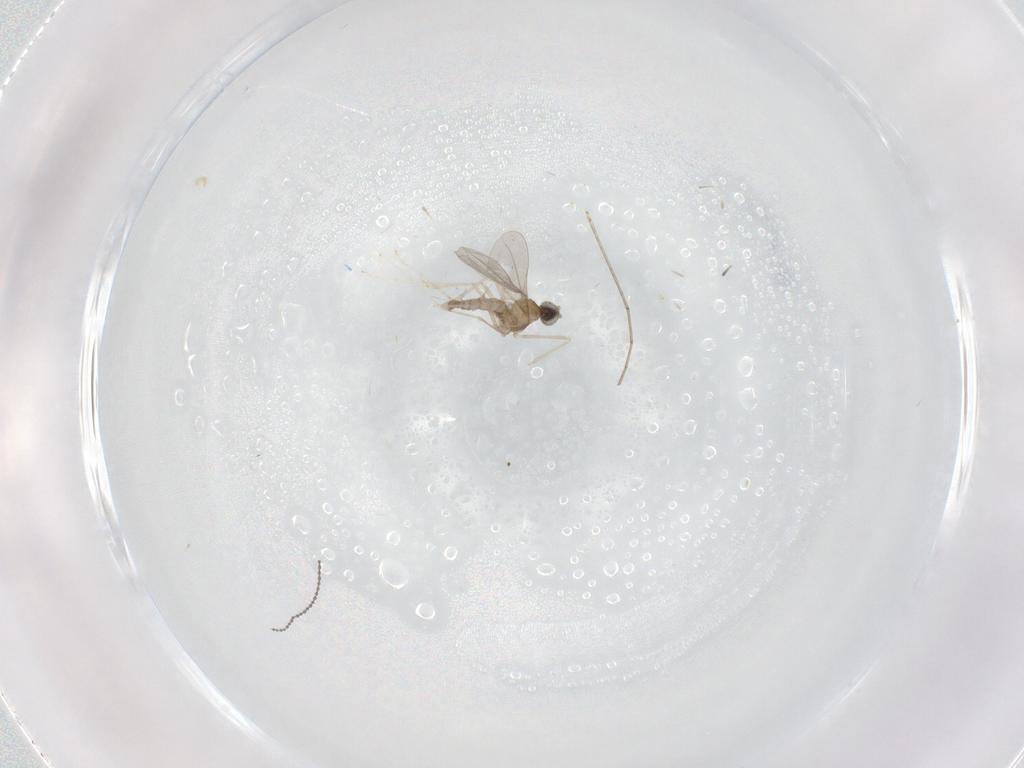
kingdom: Animalia
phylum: Arthropoda
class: Insecta
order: Diptera
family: Cecidomyiidae
